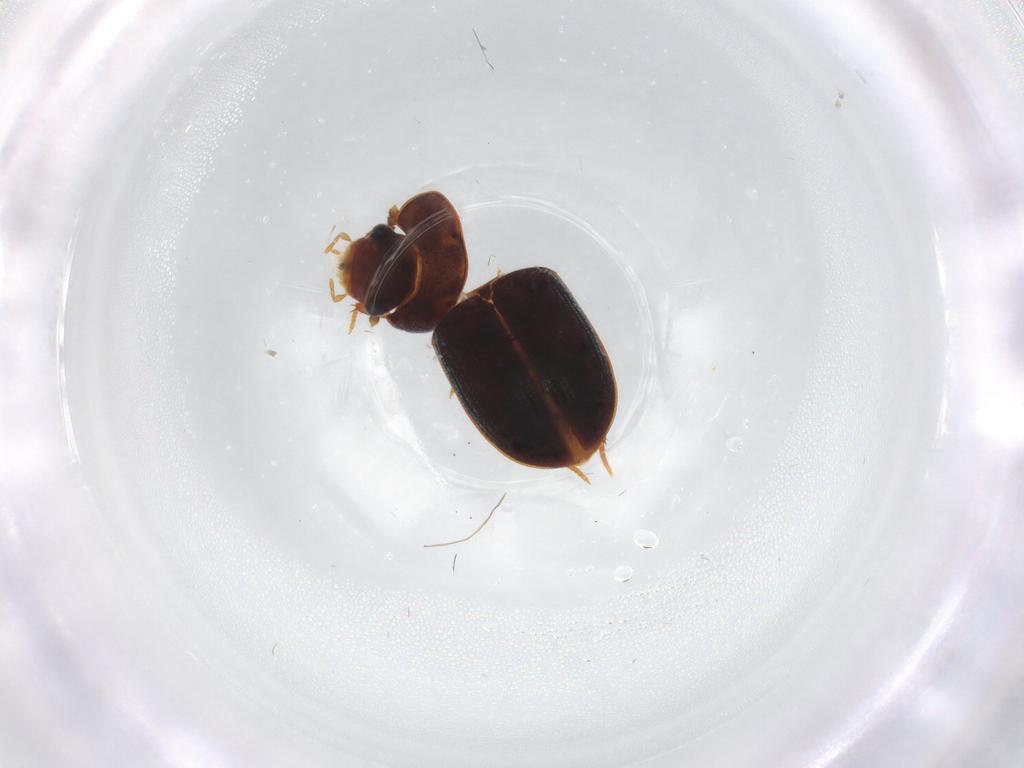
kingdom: Animalia
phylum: Arthropoda
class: Insecta
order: Coleoptera
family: Hydrophilidae
